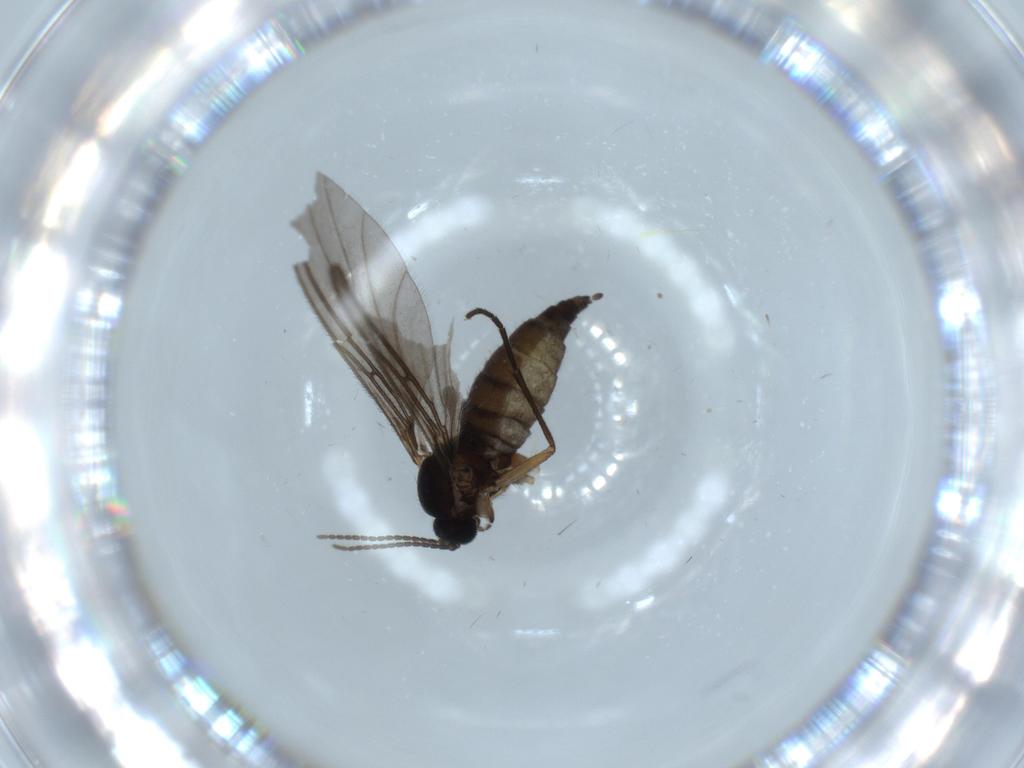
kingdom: Animalia
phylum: Arthropoda
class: Insecta
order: Diptera
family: Sciaridae
